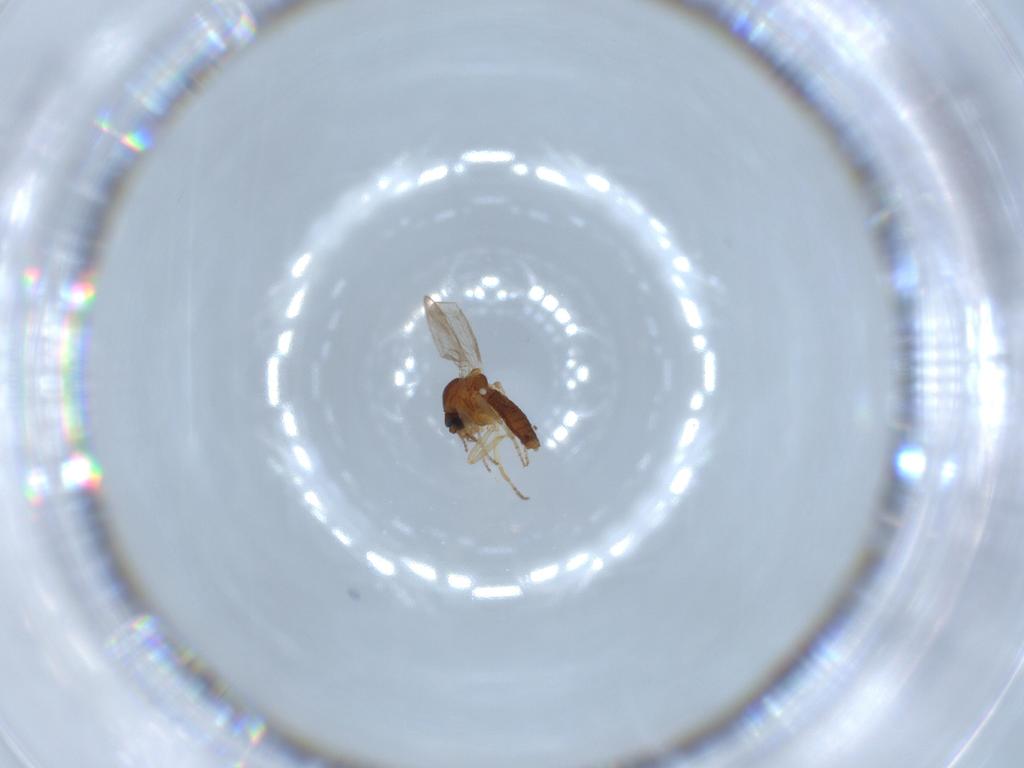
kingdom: Animalia
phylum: Arthropoda
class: Insecta
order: Diptera
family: Ceratopogonidae
